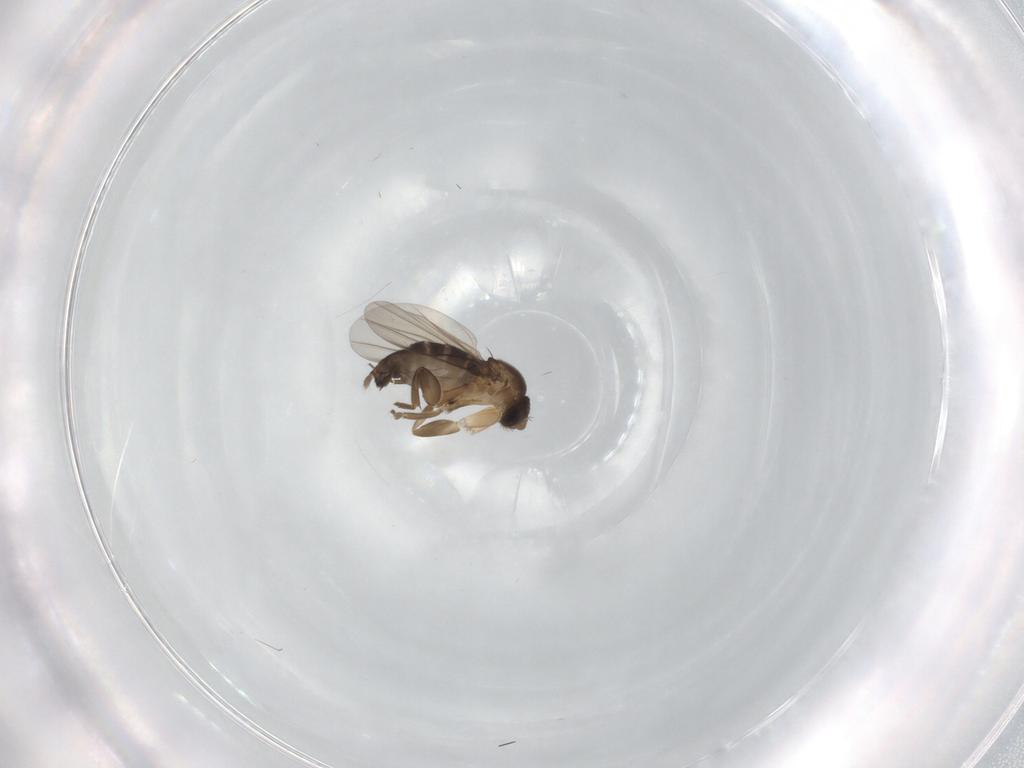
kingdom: Animalia
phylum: Arthropoda
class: Insecta
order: Diptera
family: Phoridae
